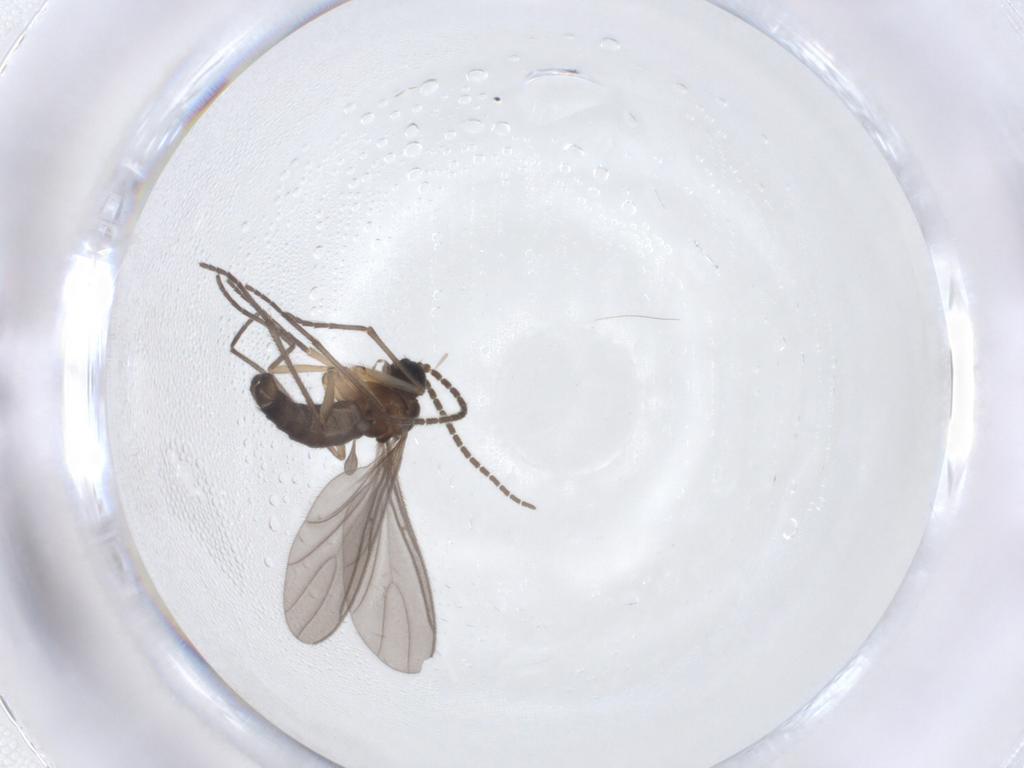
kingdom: Animalia
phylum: Arthropoda
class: Insecta
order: Diptera
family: Sciaridae
